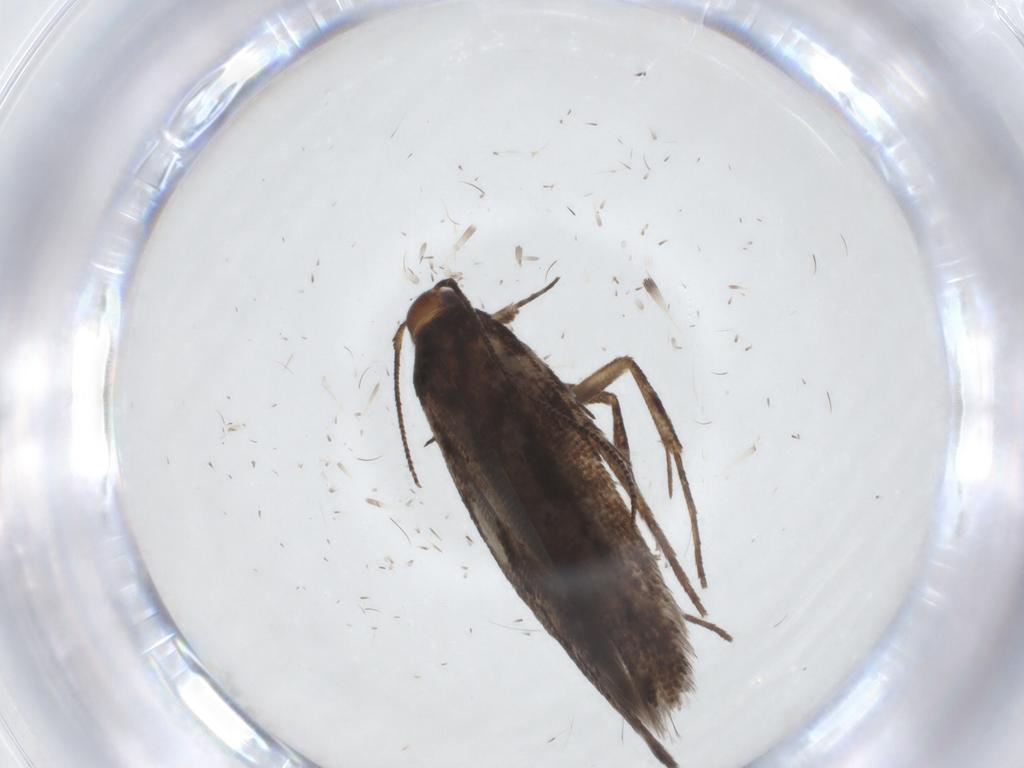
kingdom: Animalia
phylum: Arthropoda
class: Insecta
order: Lepidoptera
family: Gelechiidae
